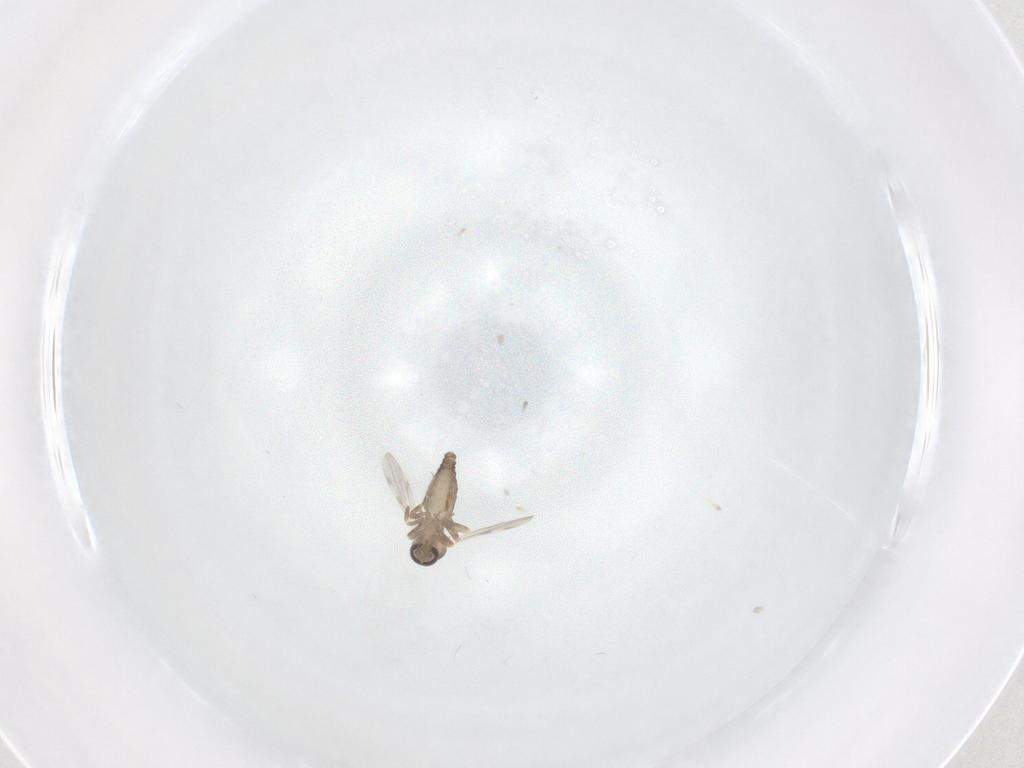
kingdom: Animalia
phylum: Arthropoda
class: Insecta
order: Diptera
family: Ceratopogonidae
